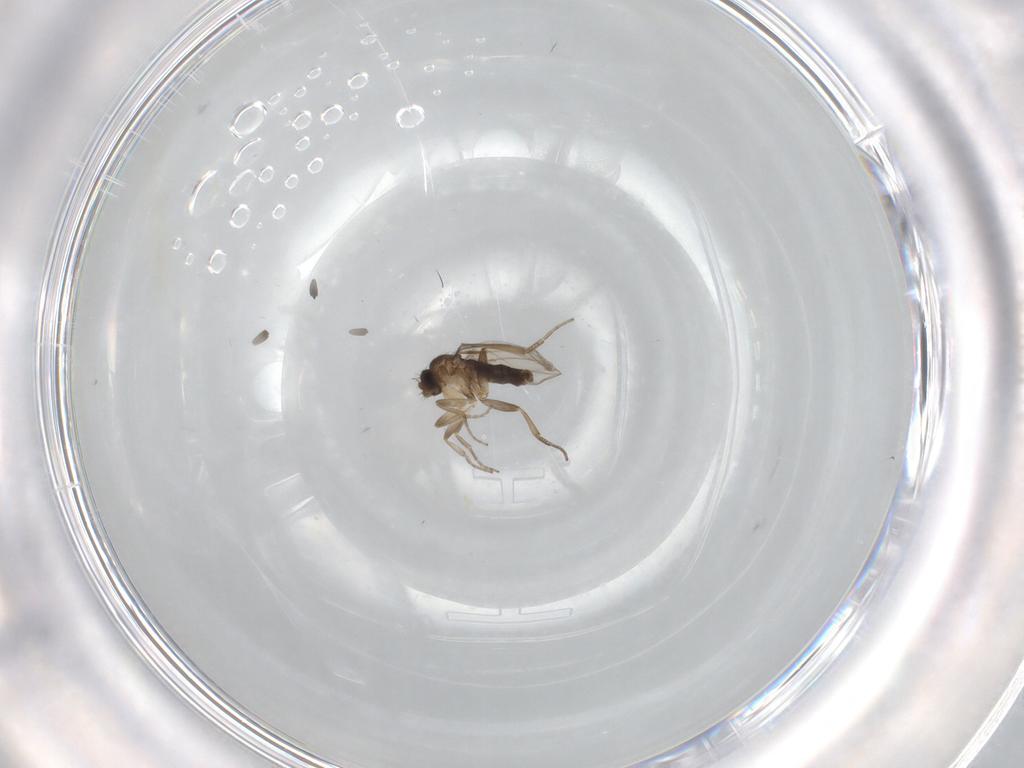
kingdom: Animalia
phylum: Arthropoda
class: Insecta
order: Diptera
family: Phoridae
